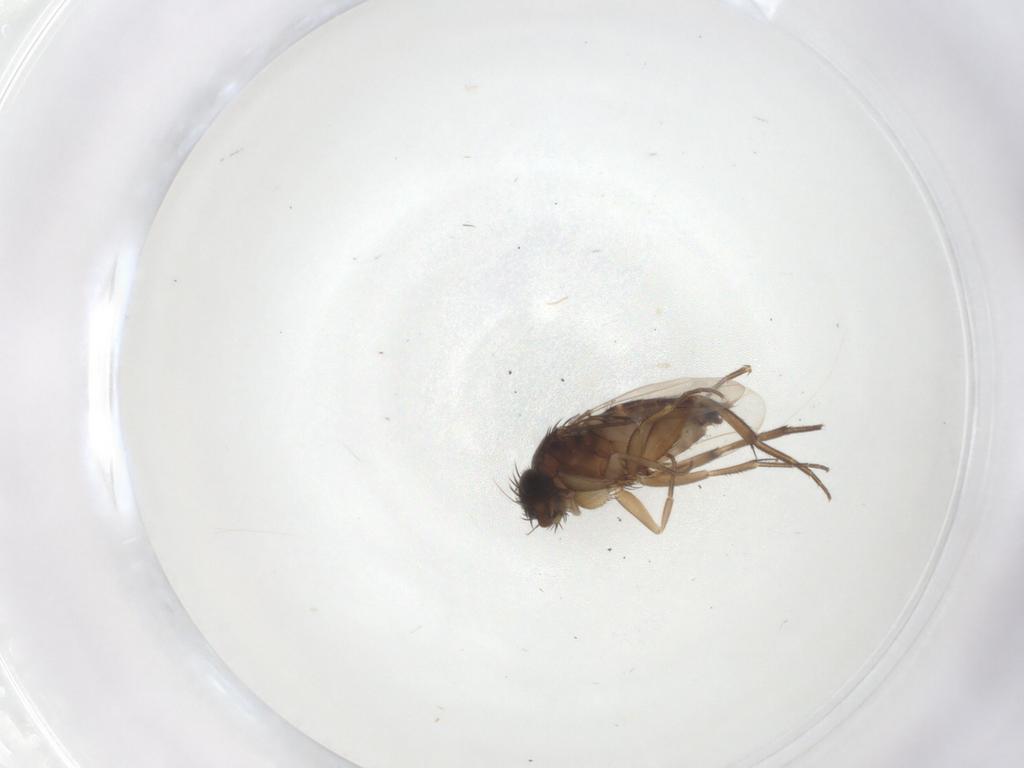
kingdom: Animalia
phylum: Arthropoda
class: Insecta
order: Diptera
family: Phoridae
